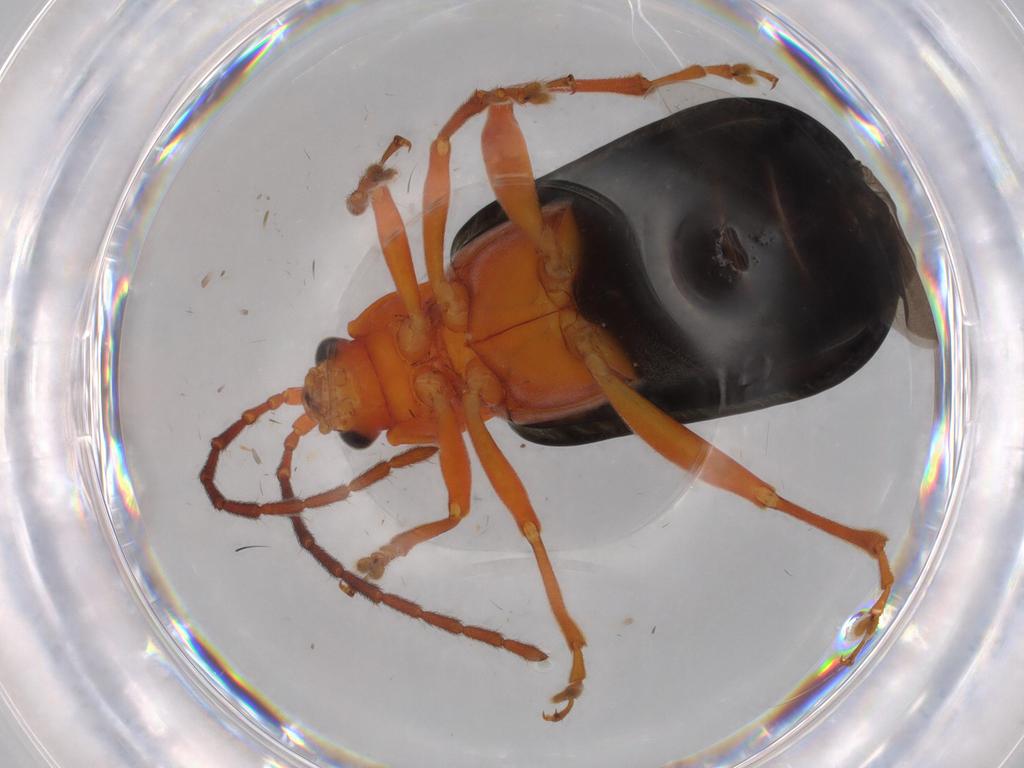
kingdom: Animalia
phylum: Arthropoda
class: Insecta
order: Coleoptera
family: Chrysomelidae
